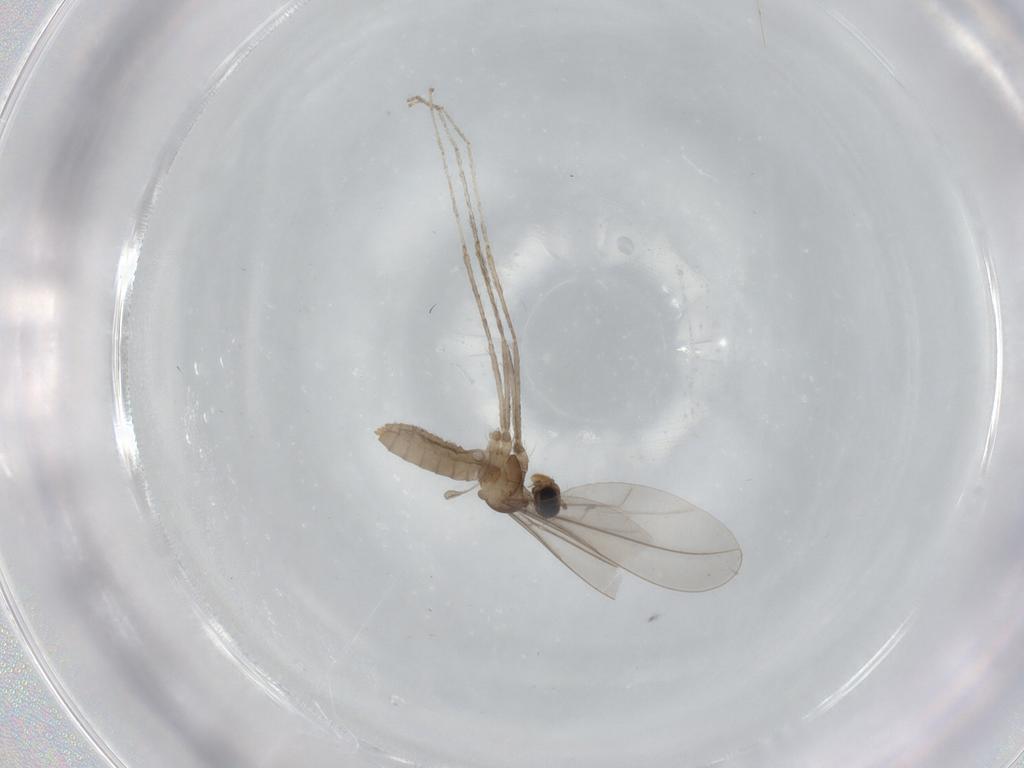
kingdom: Animalia
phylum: Arthropoda
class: Insecta
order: Diptera
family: Cecidomyiidae
